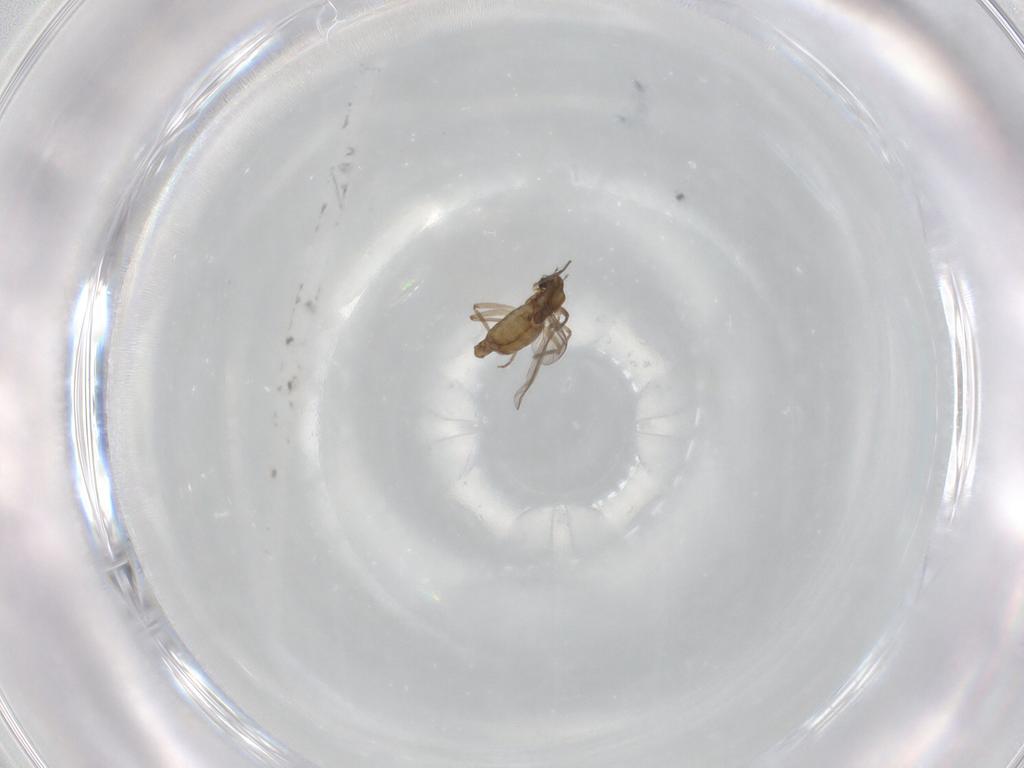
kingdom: Animalia
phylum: Arthropoda
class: Insecta
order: Diptera
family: Chironomidae
